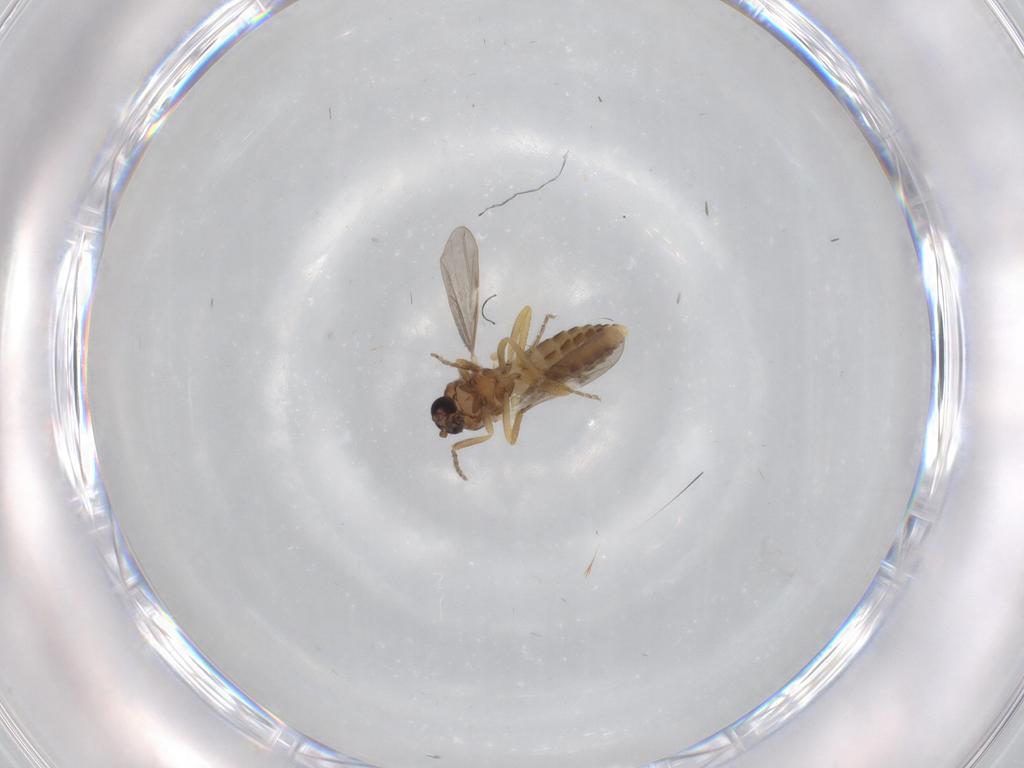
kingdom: Animalia
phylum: Arthropoda
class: Insecta
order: Diptera
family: Ceratopogonidae
